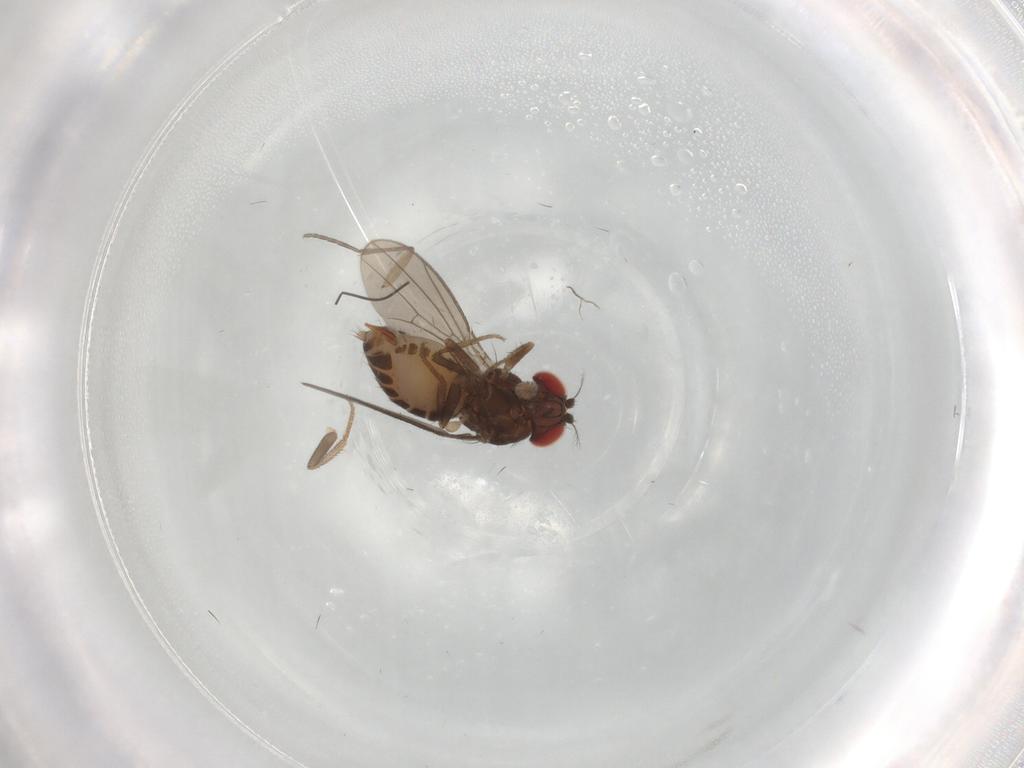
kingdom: Animalia
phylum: Arthropoda
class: Insecta
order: Diptera
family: Drosophilidae
